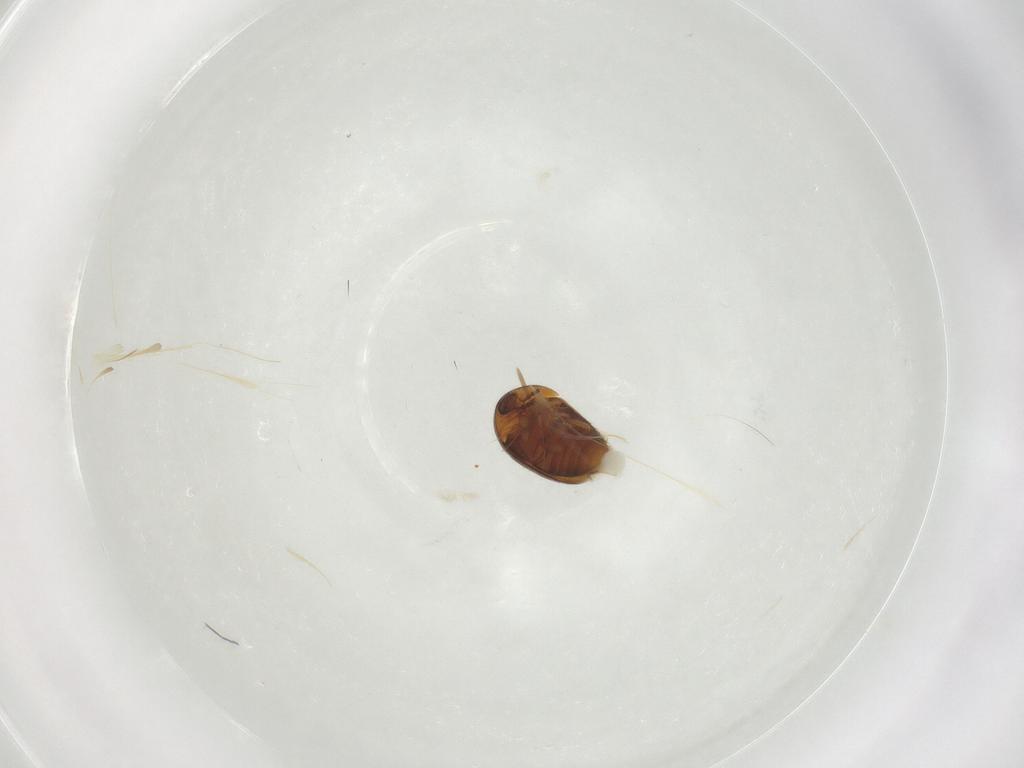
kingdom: Animalia
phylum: Arthropoda
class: Insecta
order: Coleoptera
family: Corylophidae
